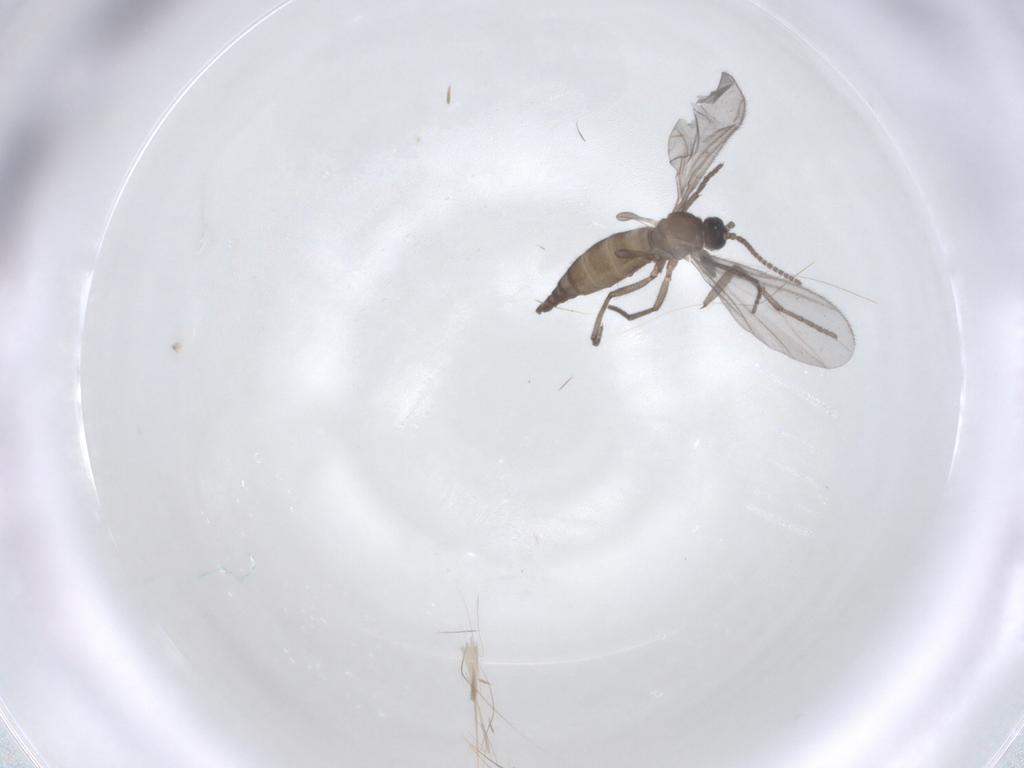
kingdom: Animalia
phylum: Arthropoda
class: Insecta
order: Diptera
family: Sciaridae
